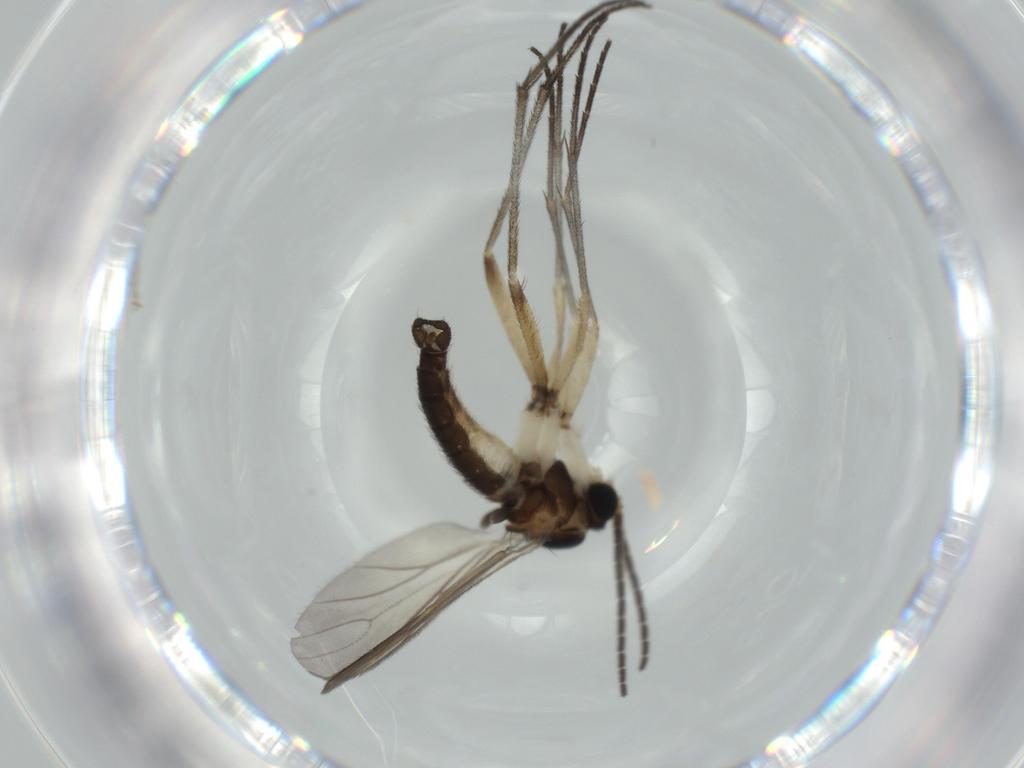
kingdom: Animalia
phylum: Arthropoda
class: Insecta
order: Diptera
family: Sciaridae
